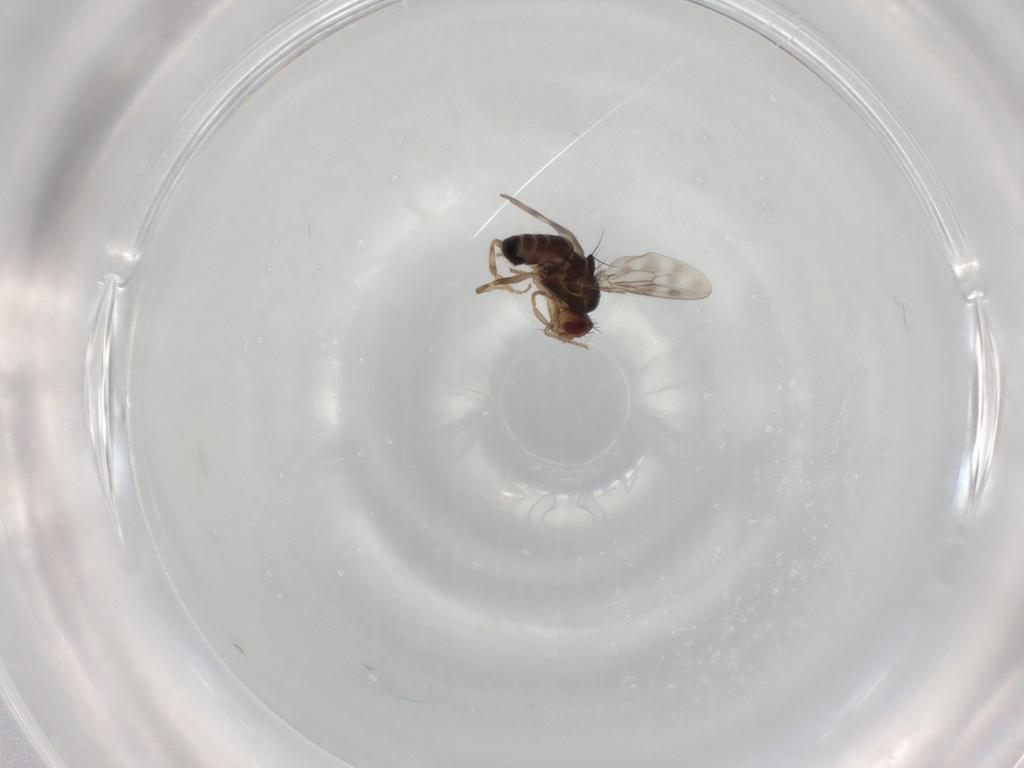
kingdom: Animalia
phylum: Arthropoda
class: Insecta
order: Diptera
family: Sphaeroceridae
